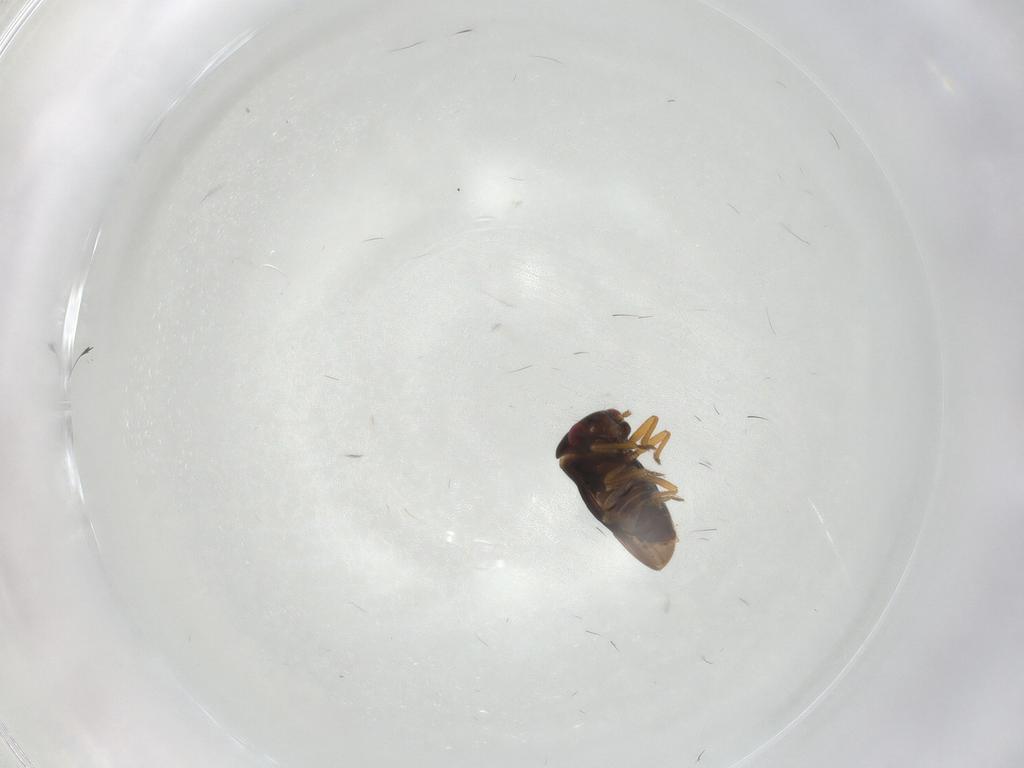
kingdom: Animalia
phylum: Arthropoda
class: Insecta
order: Hemiptera
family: Schizopteridae
